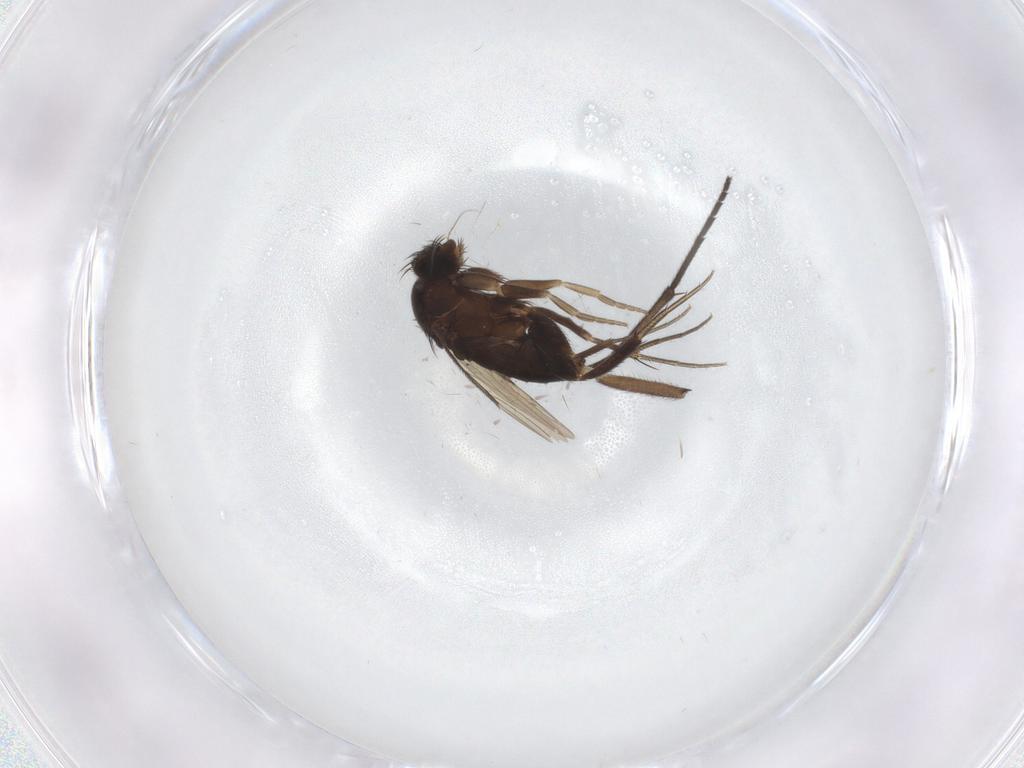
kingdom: Animalia
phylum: Arthropoda
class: Insecta
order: Diptera
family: Phoridae
